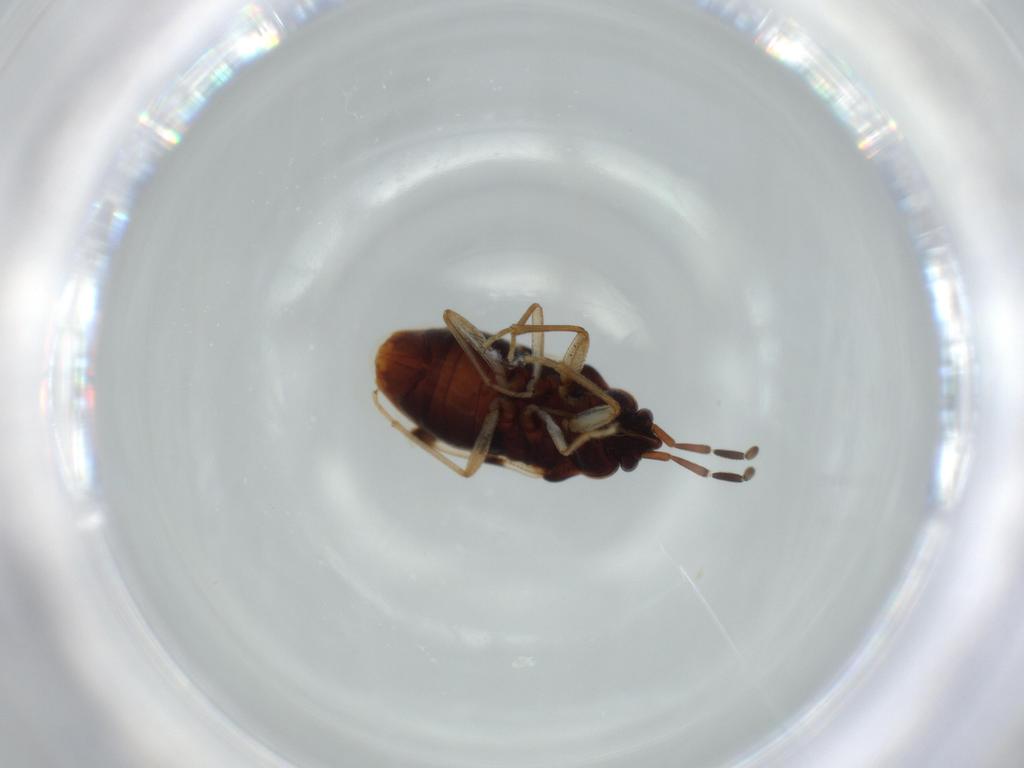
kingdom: Animalia
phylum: Arthropoda
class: Insecta
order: Hemiptera
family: Rhyparochromidae
